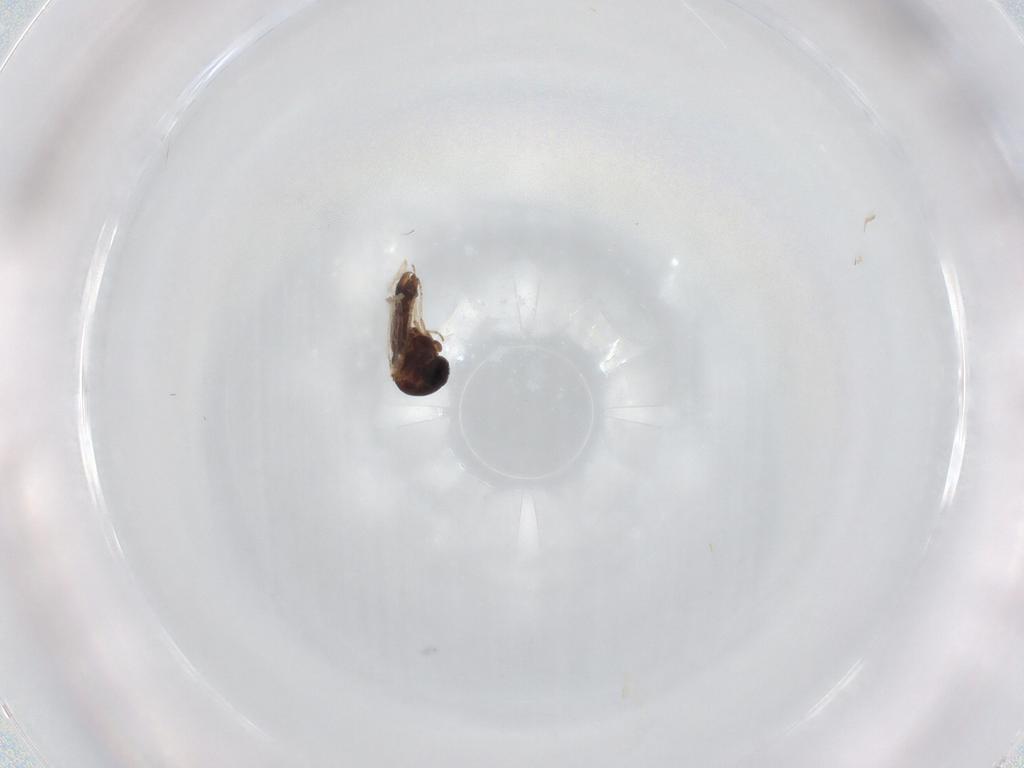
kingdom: Animalia
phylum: Arthropoda
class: Insecta
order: Diptera
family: Ceratopogonidae
